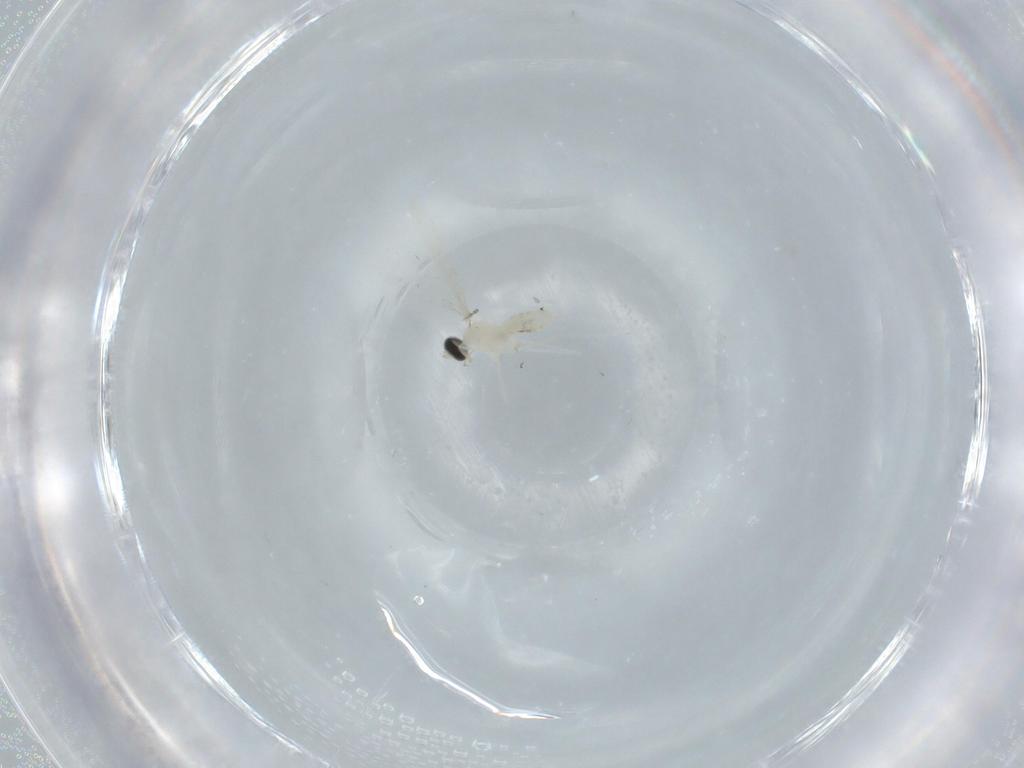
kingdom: Animalia
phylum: Arthropoda
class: Insecta
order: Diptera
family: Cecidomyiidae
